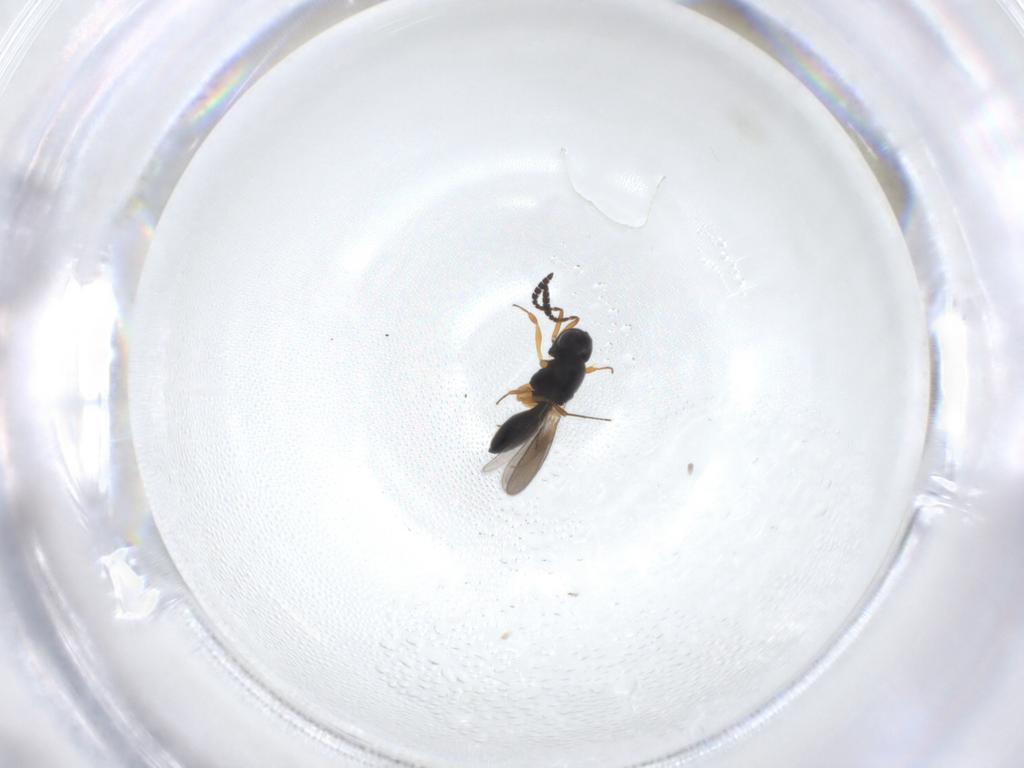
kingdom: Animalia
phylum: Arthropoda
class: Insecta
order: Hymenoptera
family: Scelionidae
